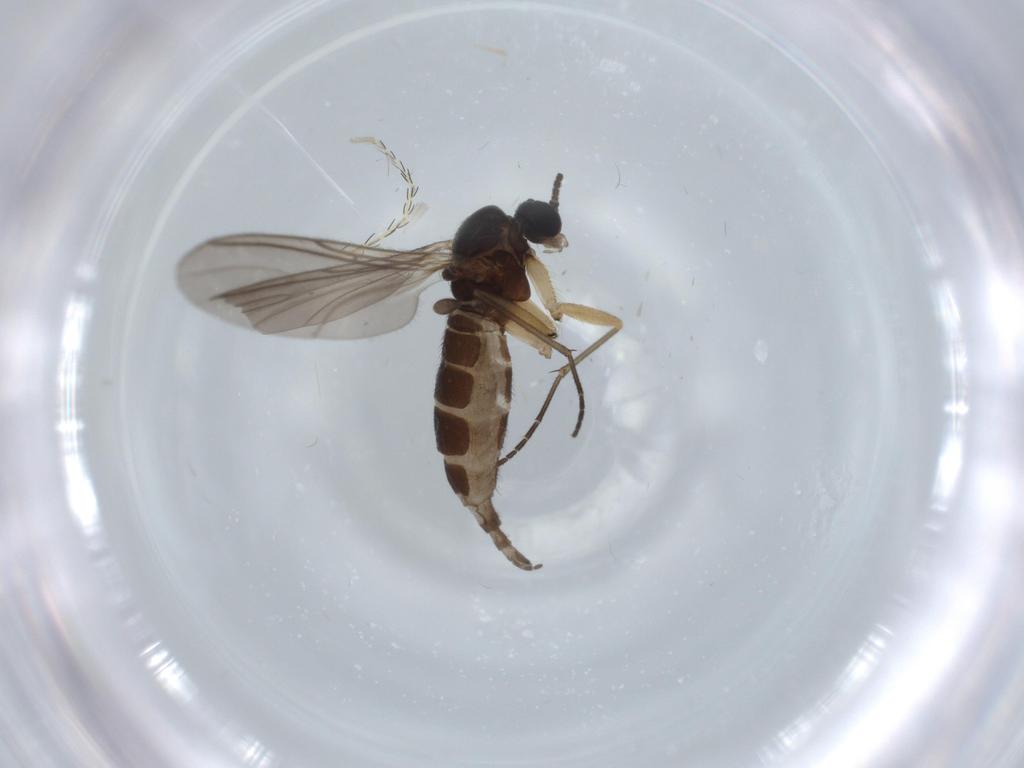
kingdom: Animalia
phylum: Arthropoda
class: Insecta
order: Diptera
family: Sciaridae
